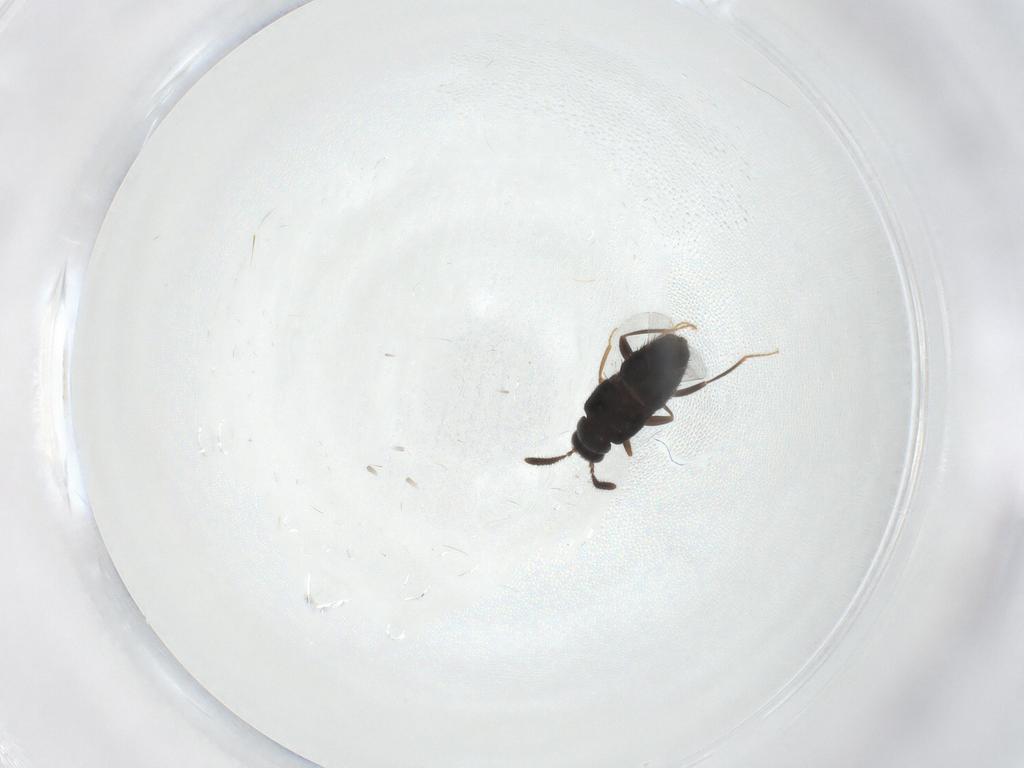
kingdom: Animalia
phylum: Arthropoda
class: Insecta
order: Coleoptera
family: Staphylinidae
